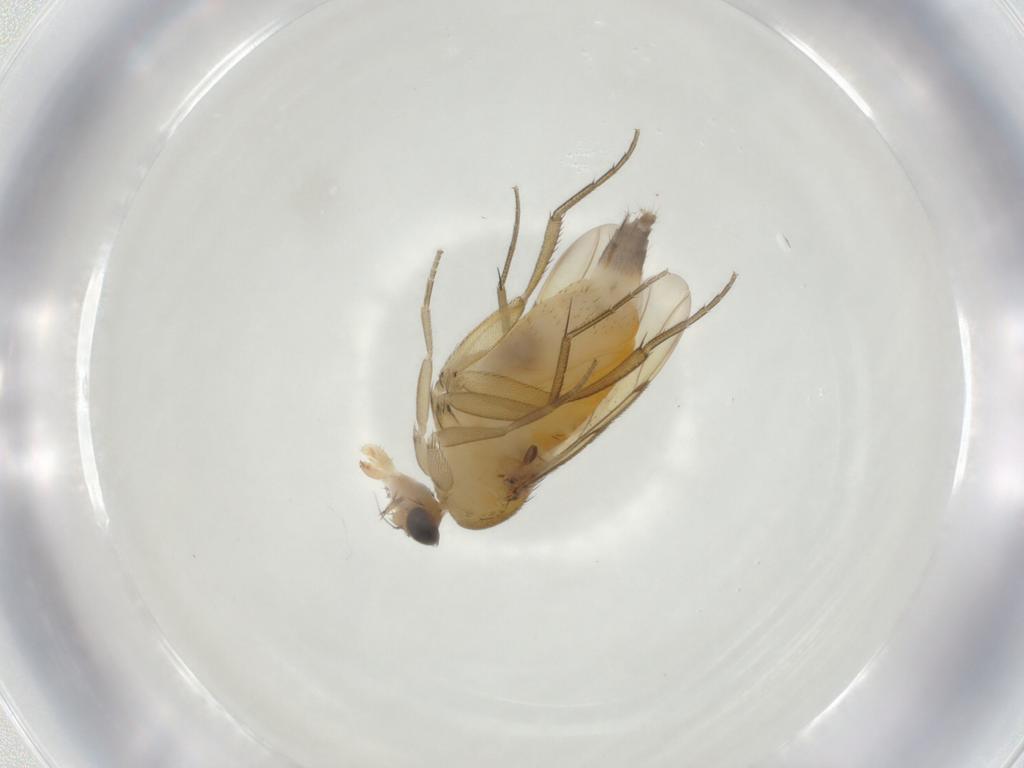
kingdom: Animalia
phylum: Arthropoda
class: Insecta
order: Diptera
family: Phoridae
